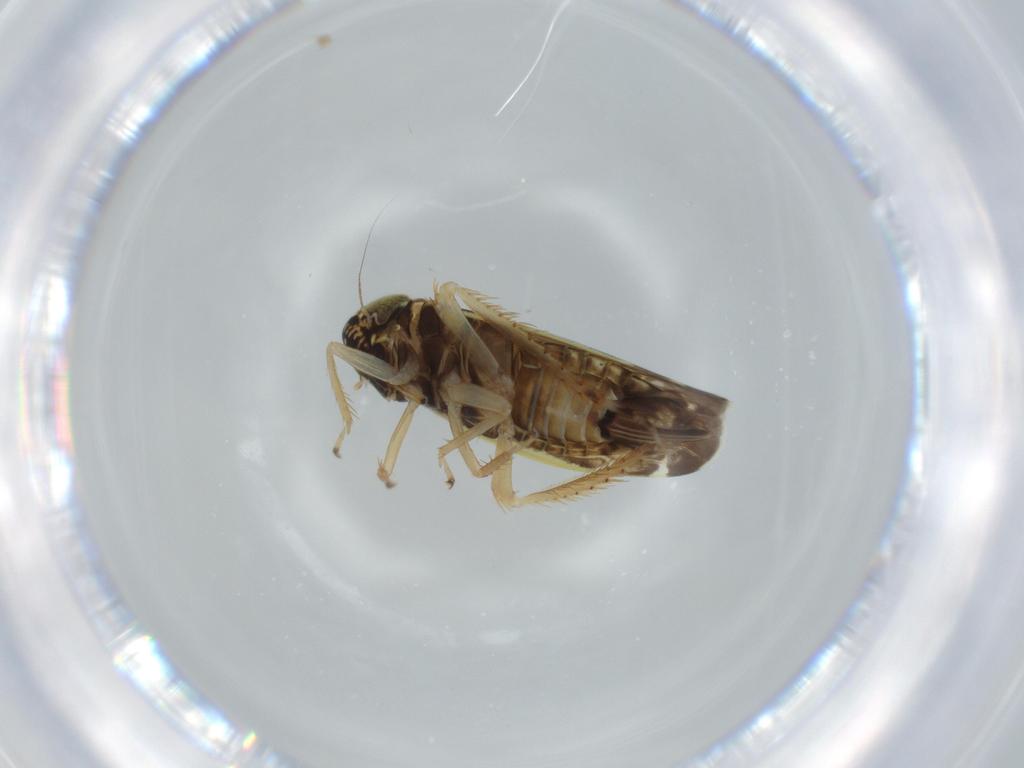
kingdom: Animalia
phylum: Arthropoda
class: Insecta
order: Hemiptera
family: Cicadellidae
